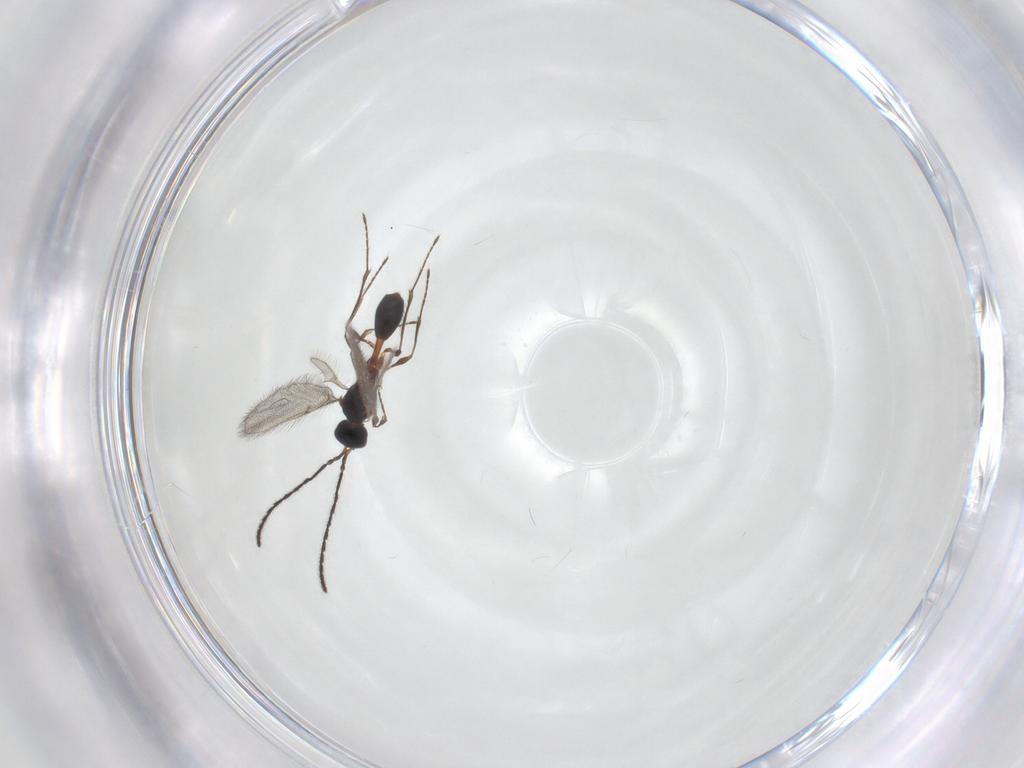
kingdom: Animalia
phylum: Arthropoda
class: Insecta
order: Hymenoptera
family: Diapriidae
